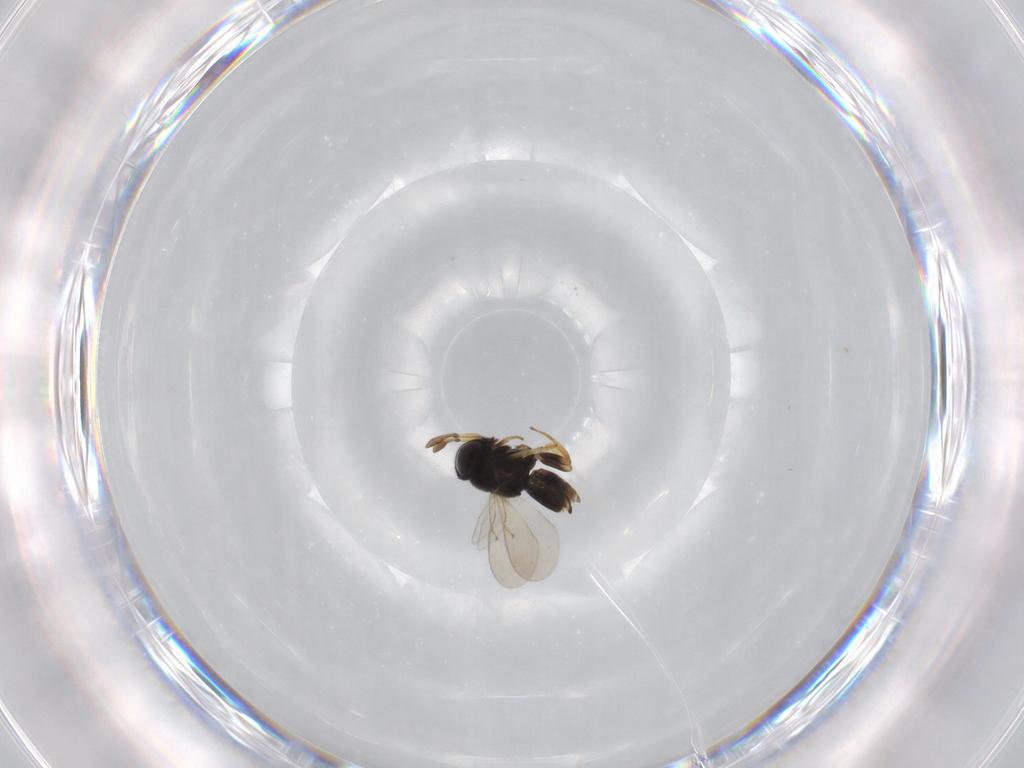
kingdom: Animalia
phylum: Arthropoda
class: Insecta
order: Hymenoptera
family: Encyrtidae
